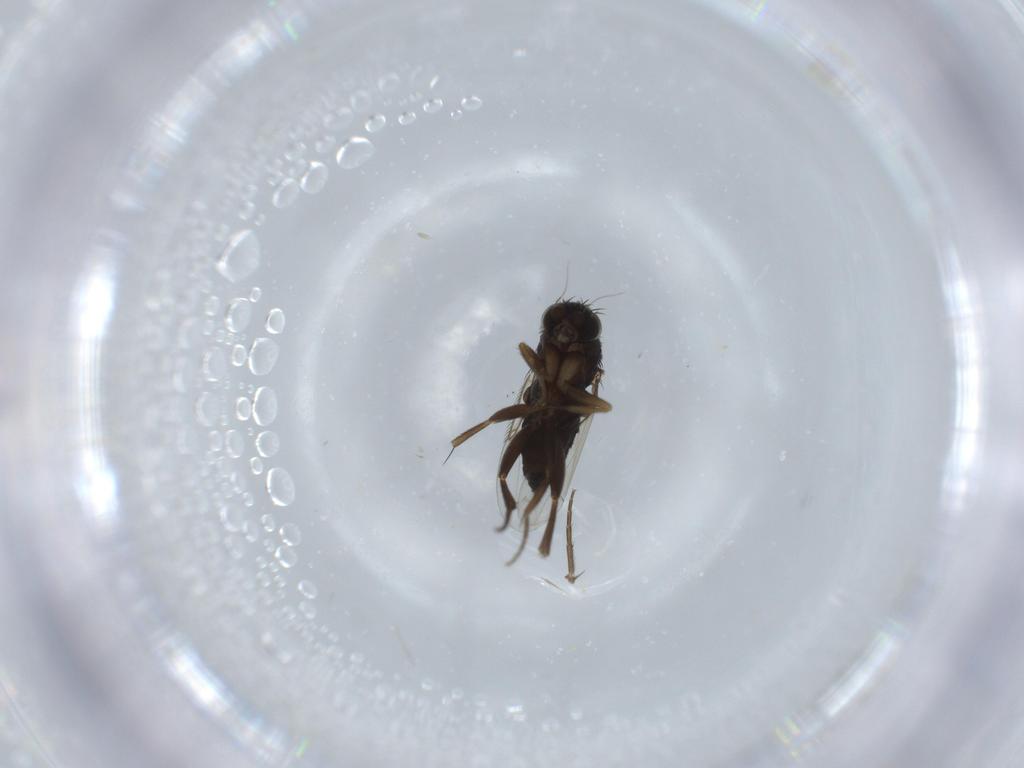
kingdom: Animalia
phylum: Arthropoda
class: Insecta
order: Diptera
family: Phoridae
